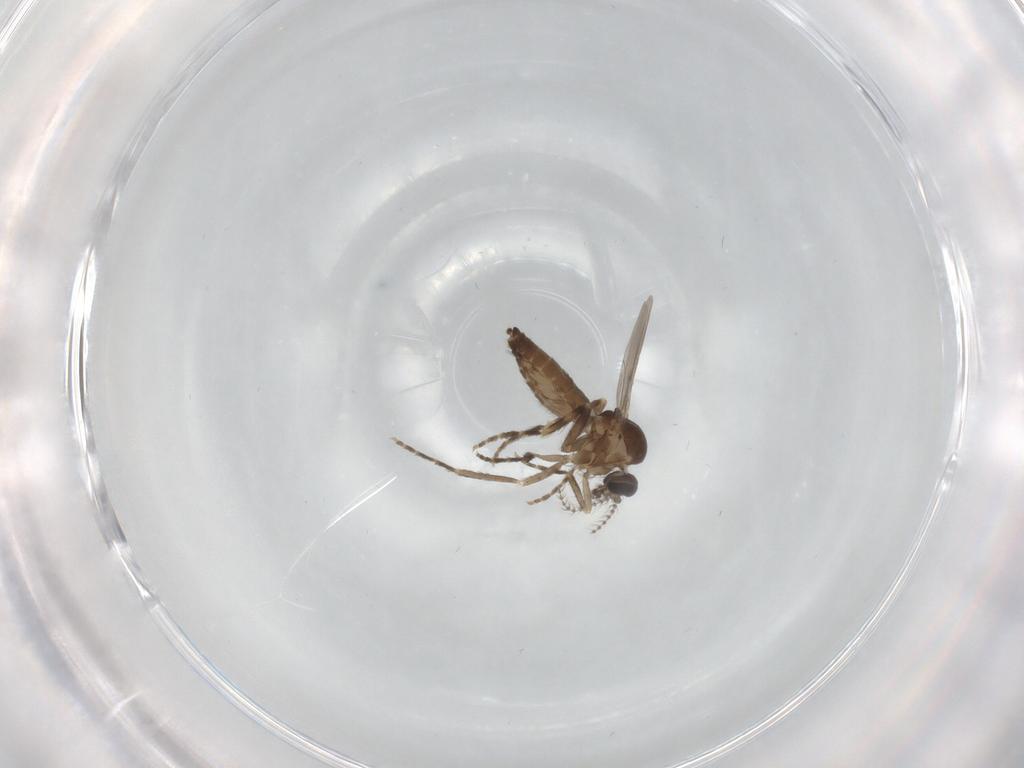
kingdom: Animalia
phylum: Arthropoda
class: Insecta
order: Diptera
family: Ceratopogonidae
